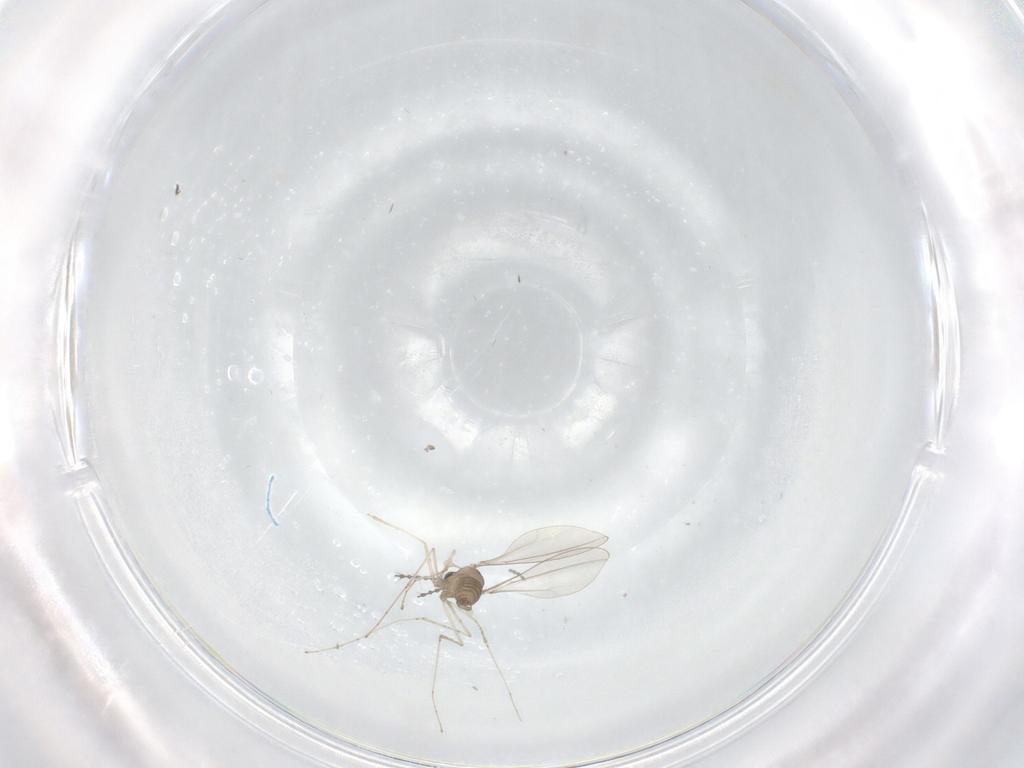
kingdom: Animalia
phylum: Arthropoda
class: Insecta
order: Diptera
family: Cecidomyiidae
